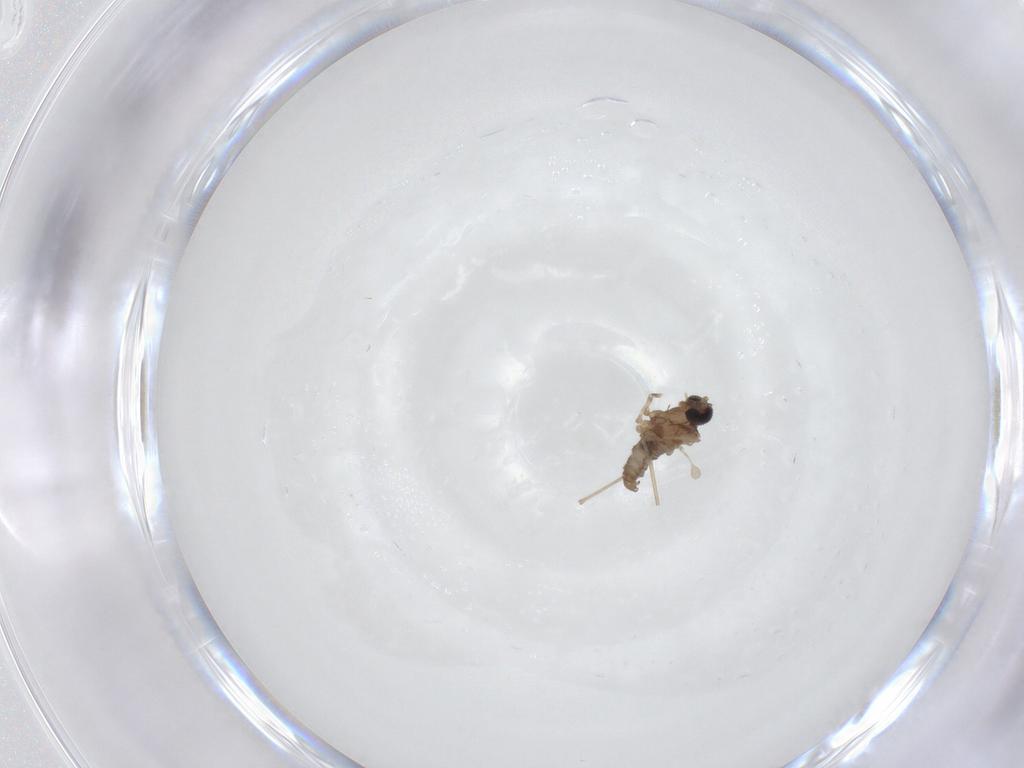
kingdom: Animalia
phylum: Arthropoda
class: Insecta
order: Diptera
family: Cecidomyiidae
